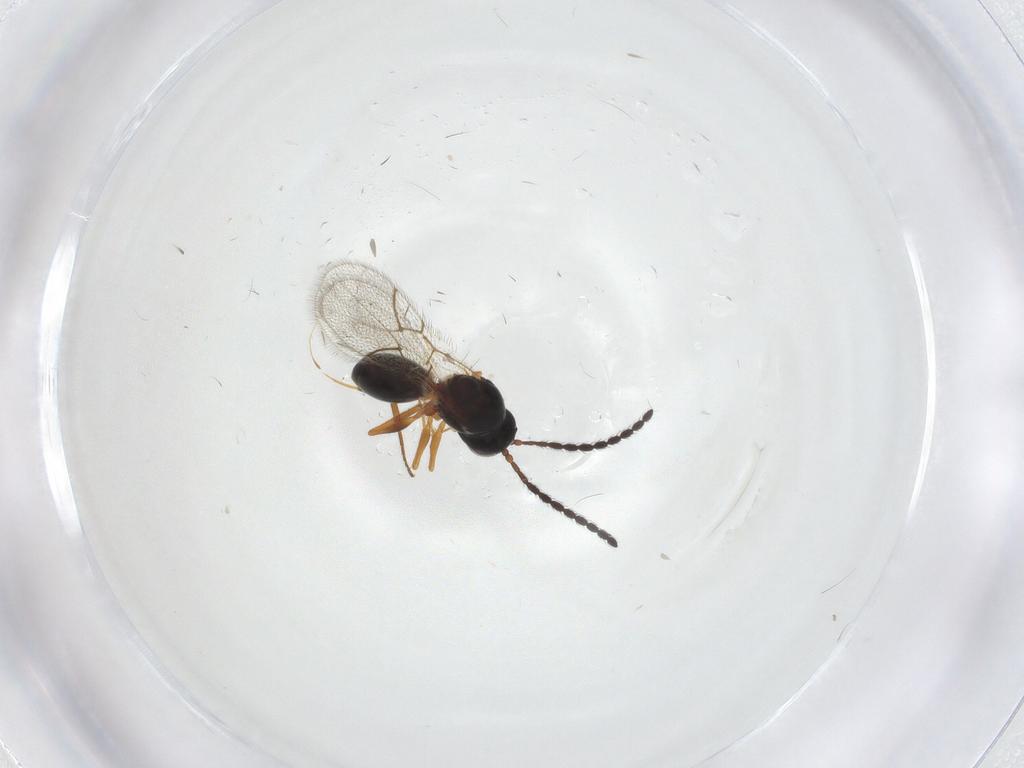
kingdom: Animalia
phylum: Arthropoda
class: Insecta
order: Hymenoptera
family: Figitidae
